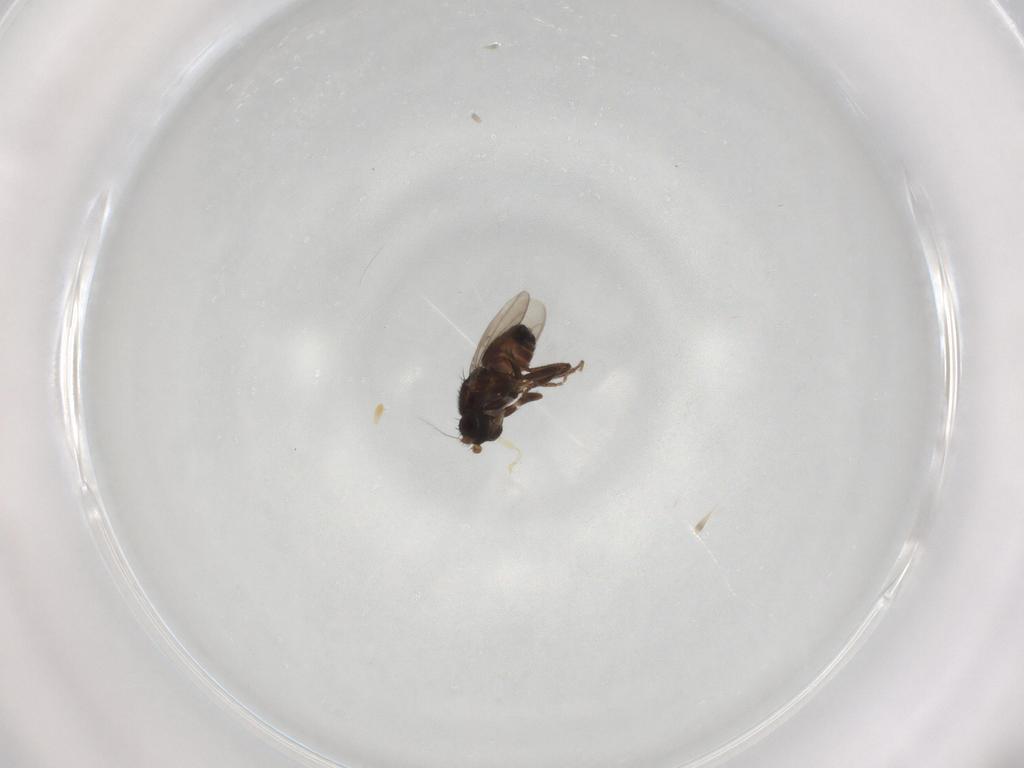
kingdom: Animalia
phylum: Arthropoda
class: Insecta
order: Diptera
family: Sphaeroceridae
